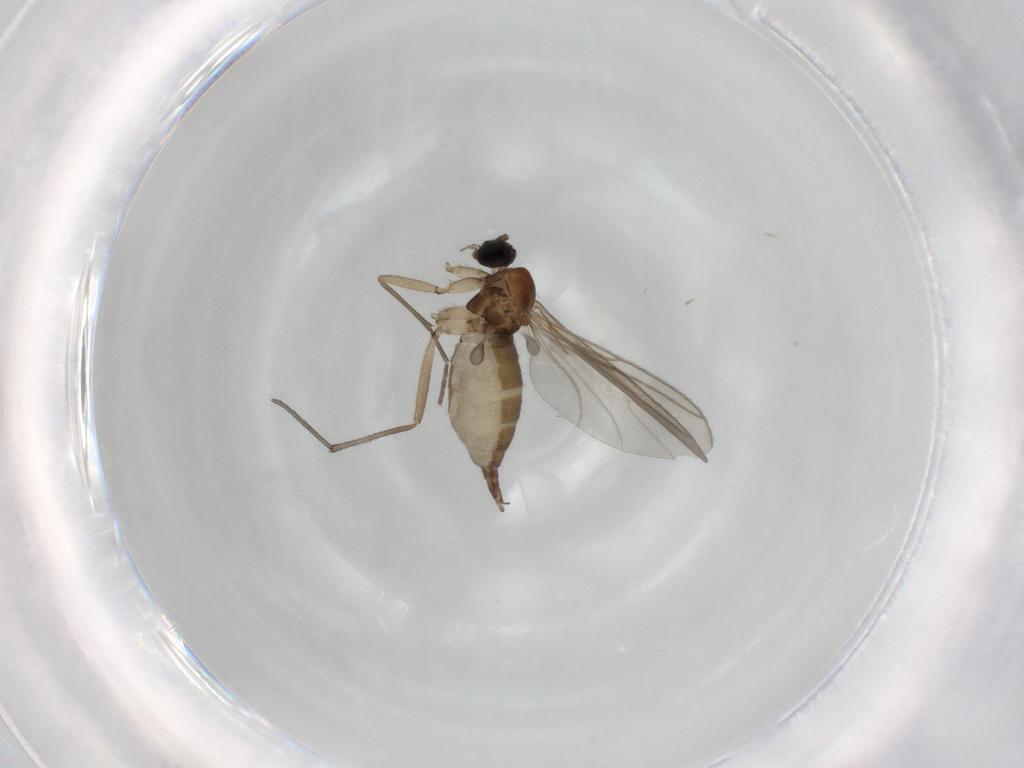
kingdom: Animalia
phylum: Arthropoda
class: Insecta
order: Diptera
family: Sciaridae
